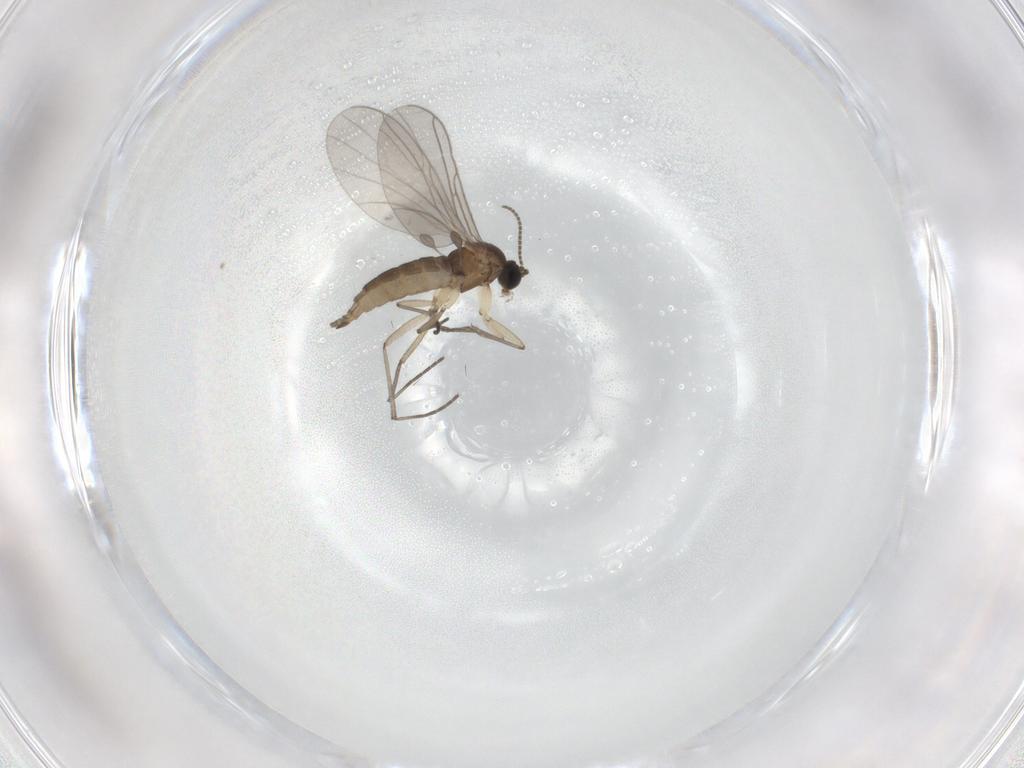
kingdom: Animalia
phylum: Arthropoda
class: Insecta
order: Diptera
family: Sciaridae
